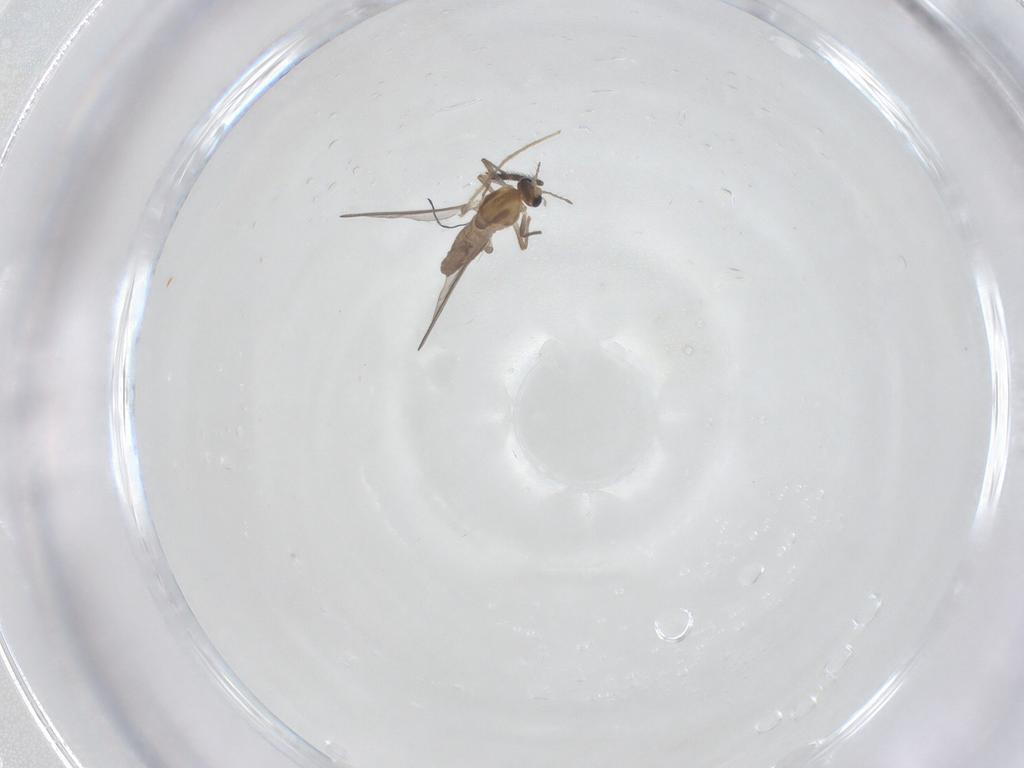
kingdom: Animalia
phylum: Arthropoda
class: Insecta
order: Diptera
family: Chironomidae
